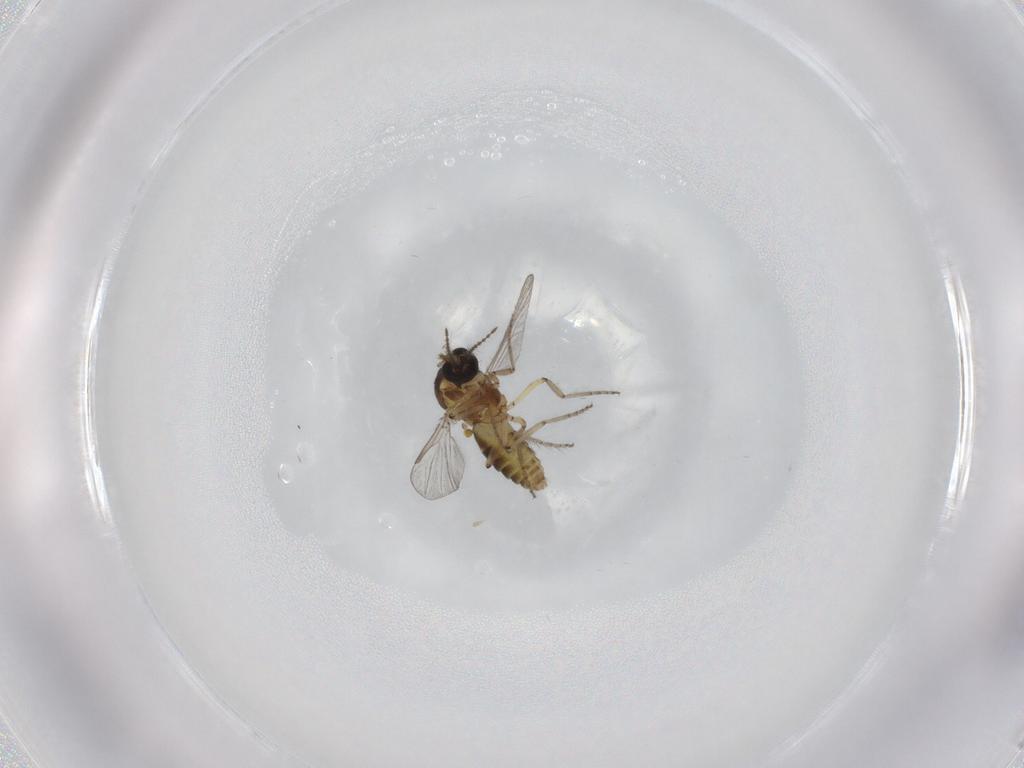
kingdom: Animalia
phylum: Arthropoda
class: Insecta
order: Diptera
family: Ceratopogonidae
